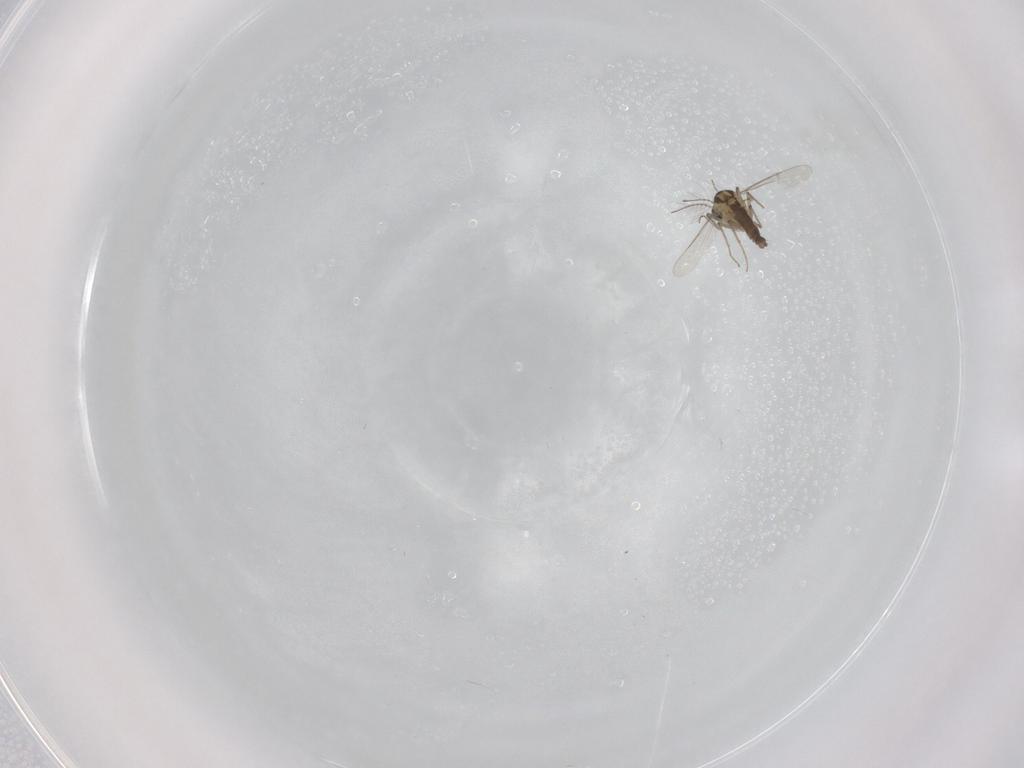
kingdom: Animalia
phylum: Arthropoda
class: Insecta
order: Diptera
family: Chironomidae
